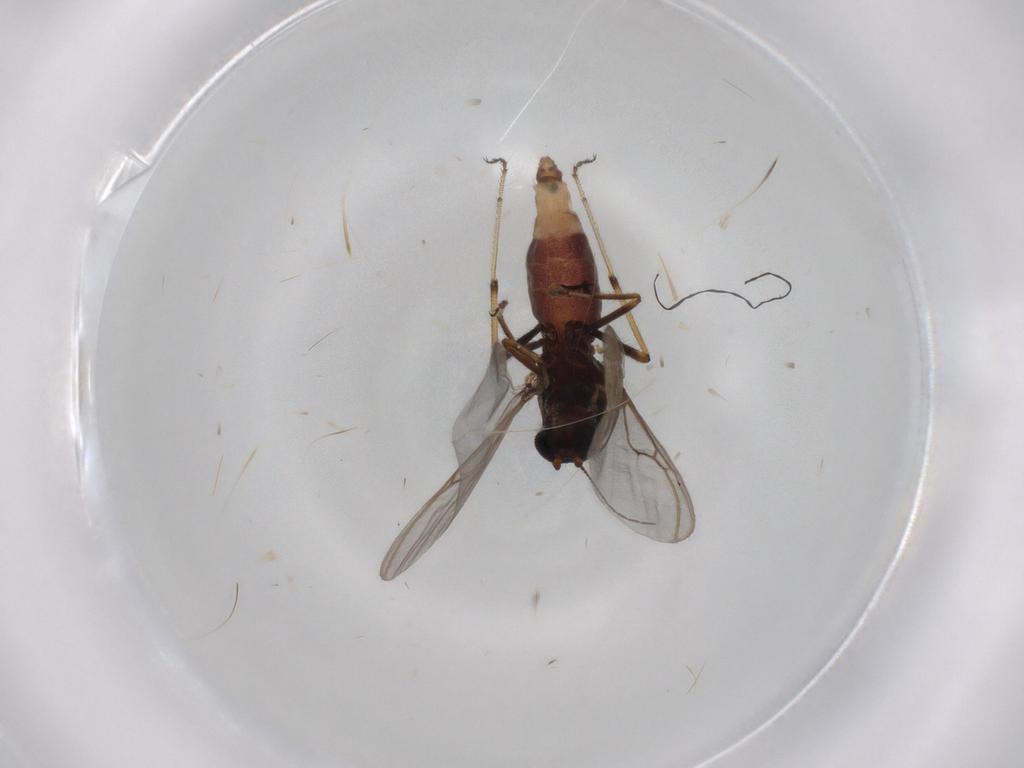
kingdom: Animalia
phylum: Arthropoda
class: Insecta
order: Diptera
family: Ceratopogonidae
